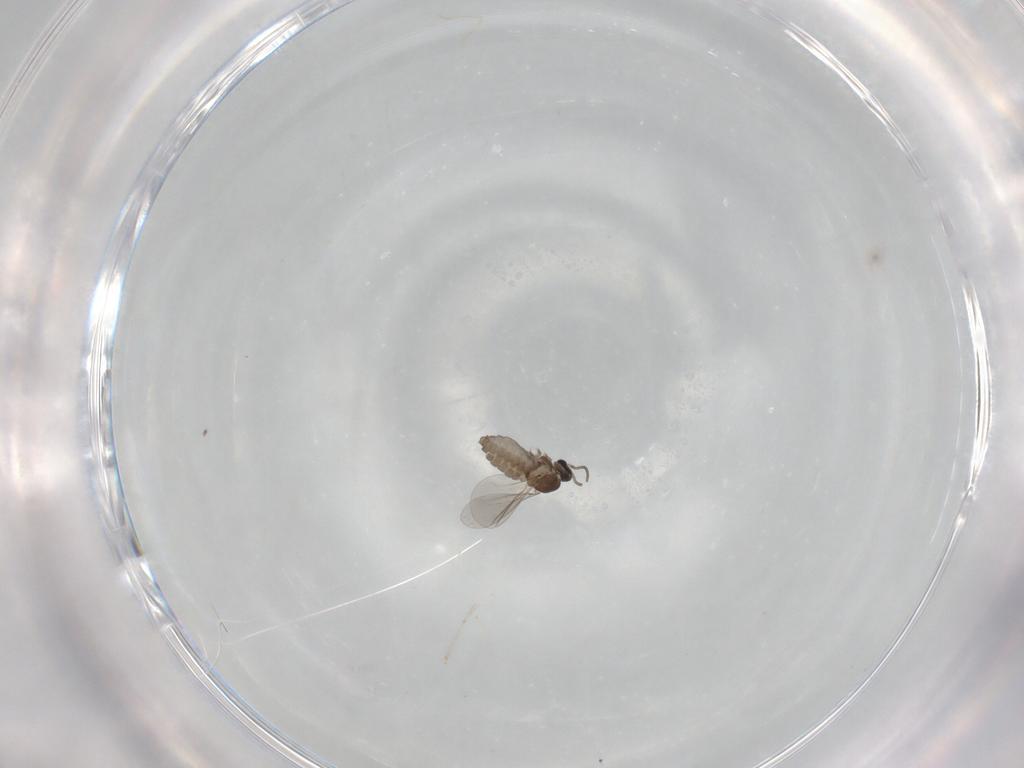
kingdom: Animalia
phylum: Arthropoda
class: Insecta
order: Diptera
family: Cecidomyiidae
